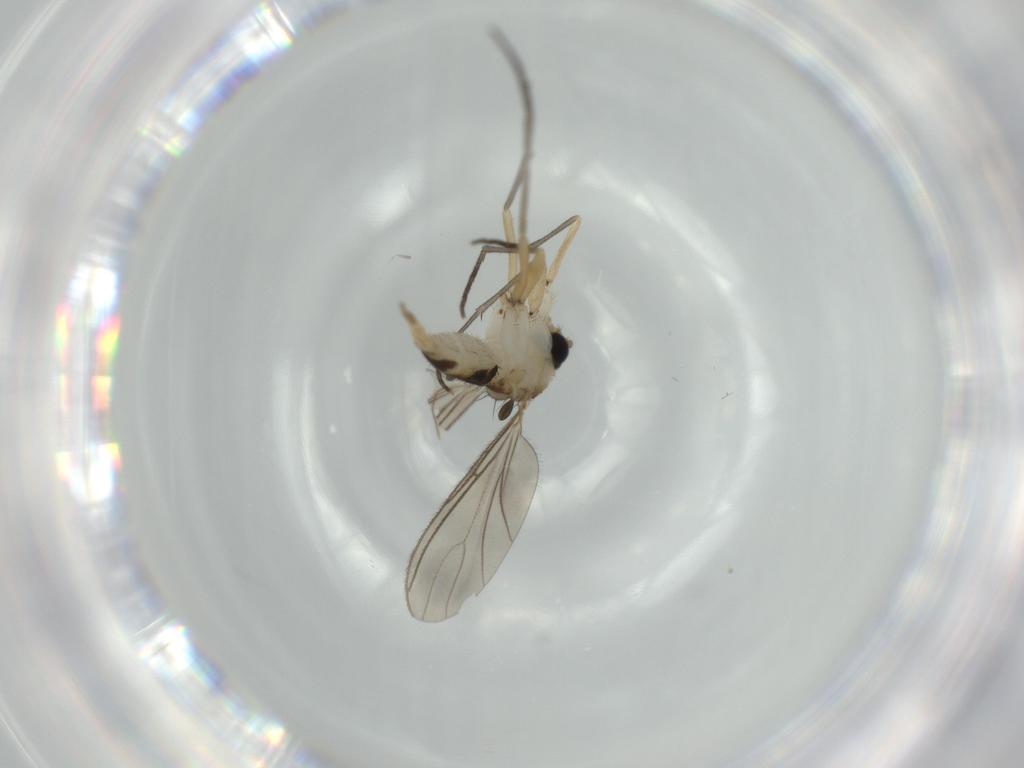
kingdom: Animalia
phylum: Arthropoda
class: Insecta
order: Diptera
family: Sciaridae
